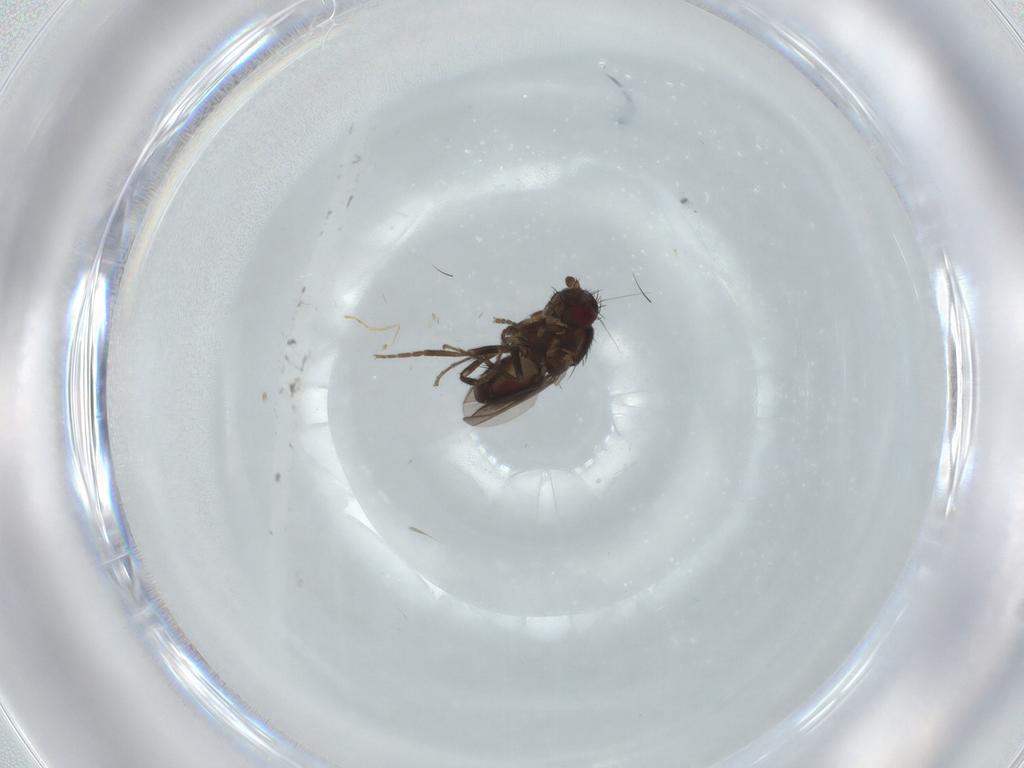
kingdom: Animalia
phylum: Arthropoda
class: Insecta
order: Diptera
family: Sphaeroceridae
